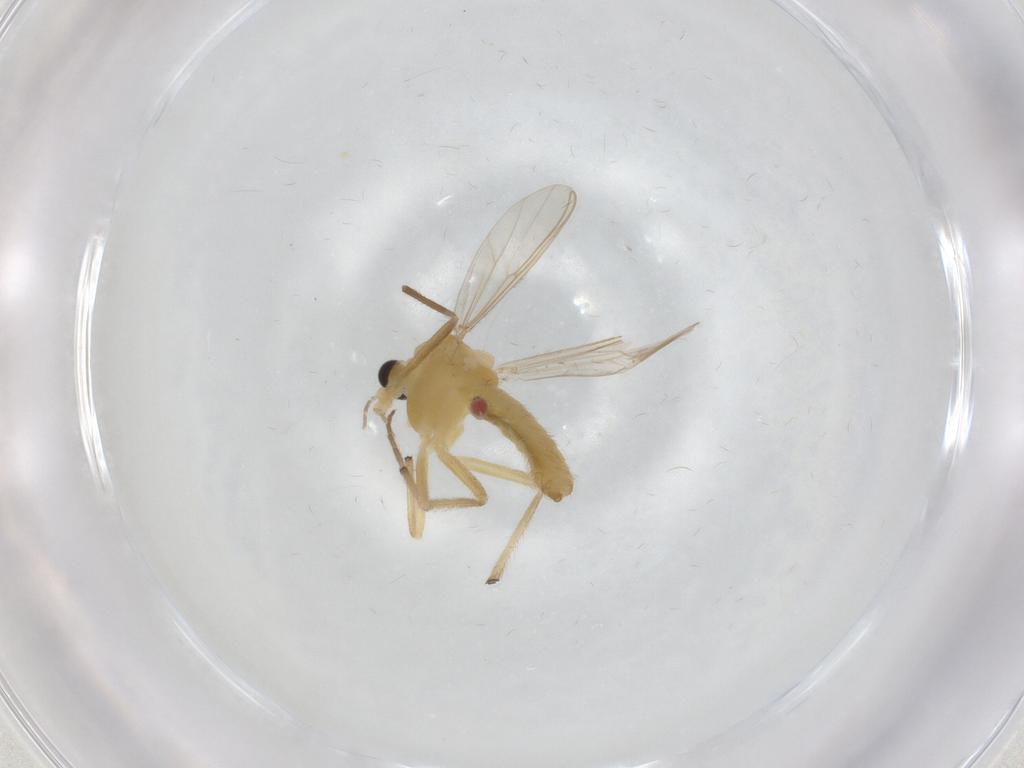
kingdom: Animalia
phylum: Arthropoda
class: Insecta
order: Diptera
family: Chironomidae
